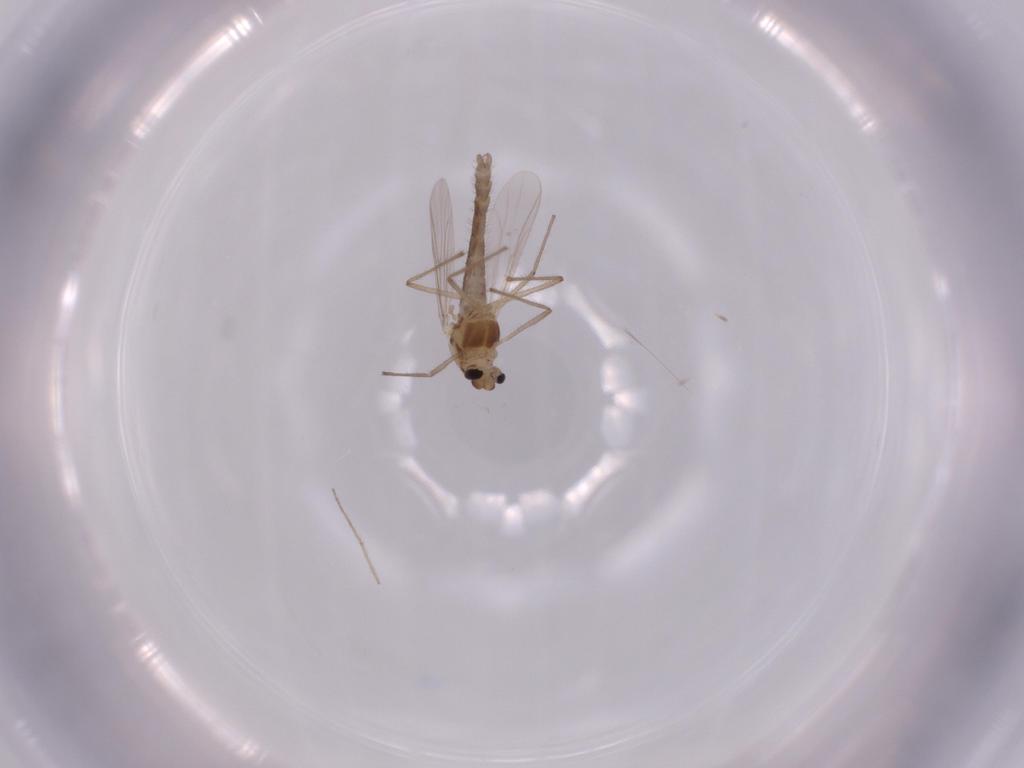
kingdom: Animalia
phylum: Arthropoda
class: Insecta
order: Diptera
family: Chironomidae
